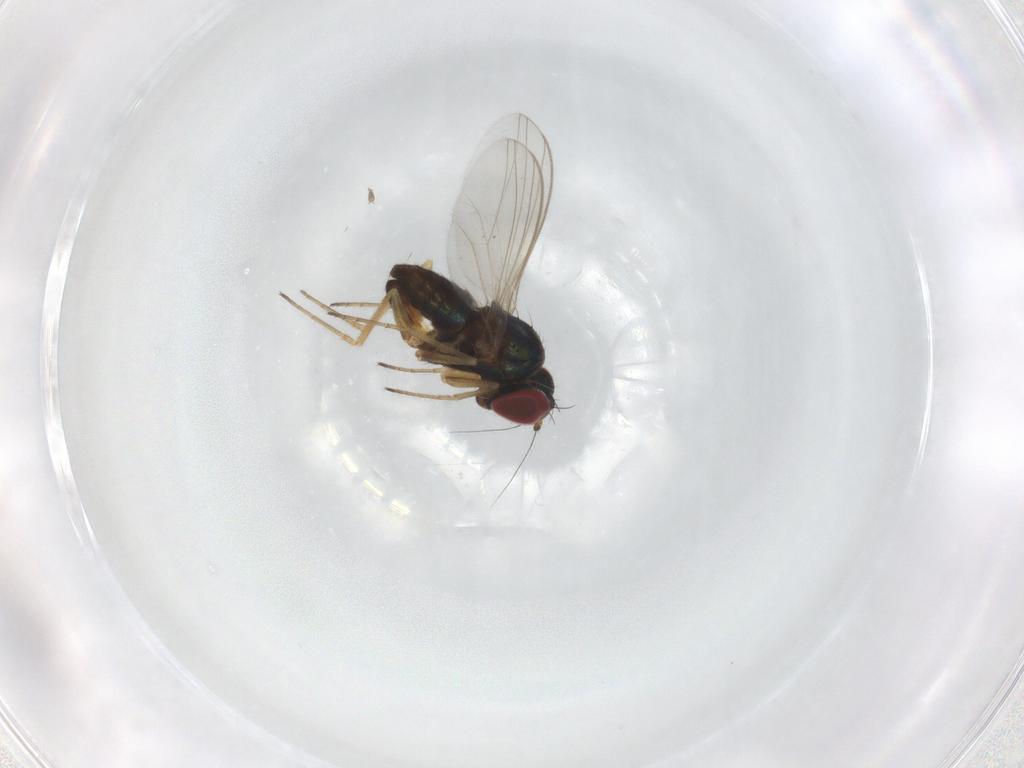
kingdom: Animalia
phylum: Arthropoda
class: Insecta
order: Diptera
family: Dolichopodidae
